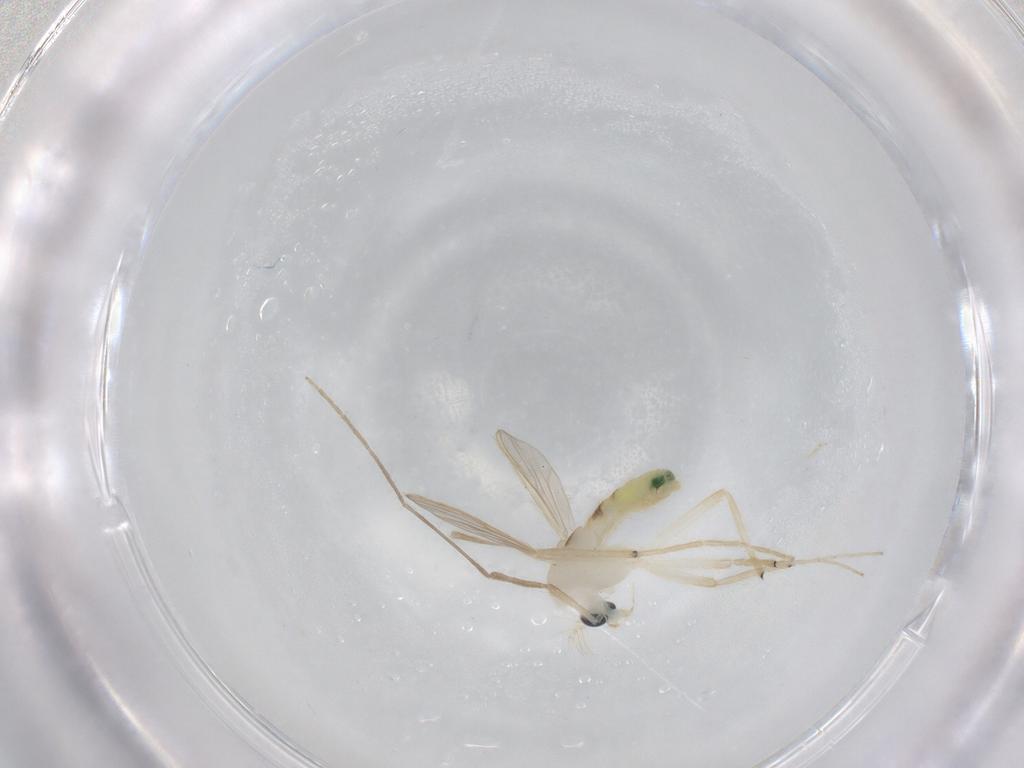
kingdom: Animalia
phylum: Arthropoda
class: Insecta
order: Diptera
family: Chironomidae
